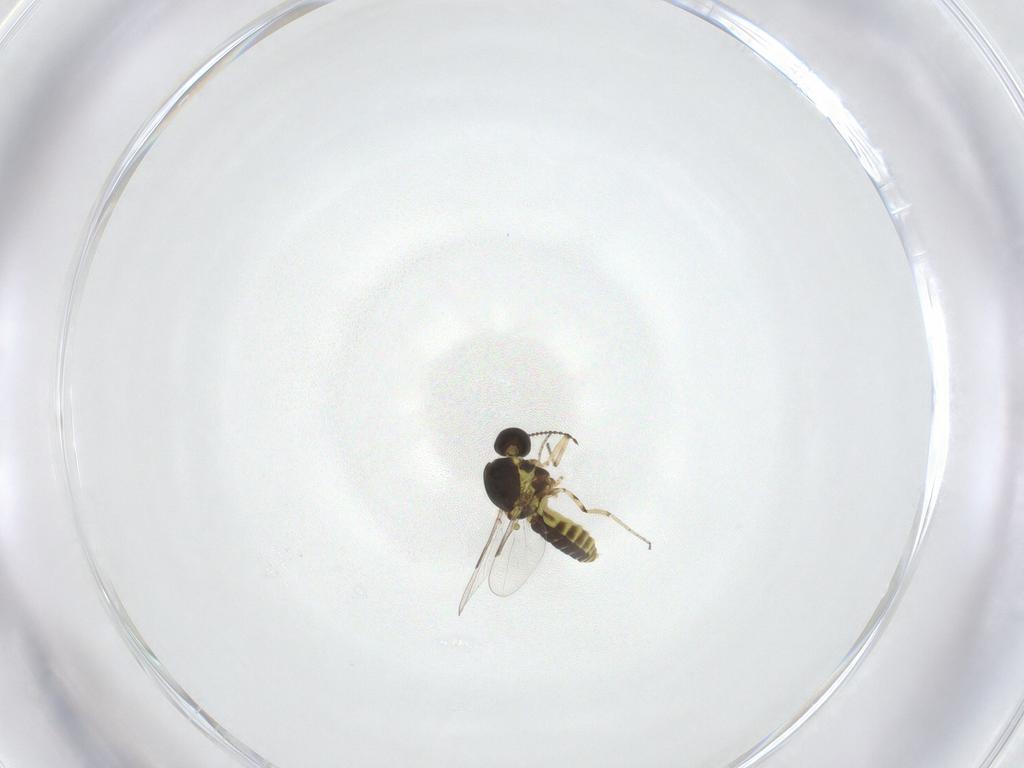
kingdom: Animalia
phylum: Arthropoda
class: Insecta
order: Diptera
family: Ceratopogonidae
